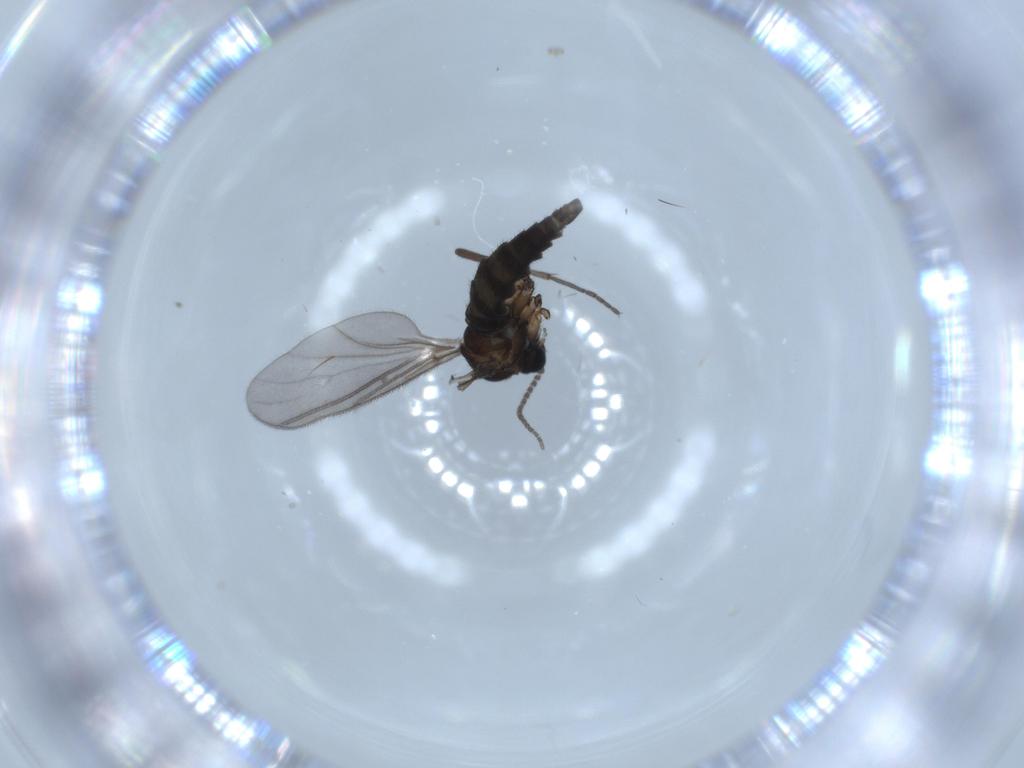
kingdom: Animalia
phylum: Arthropoda
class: Insecta
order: Diptera
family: Sciaridae
